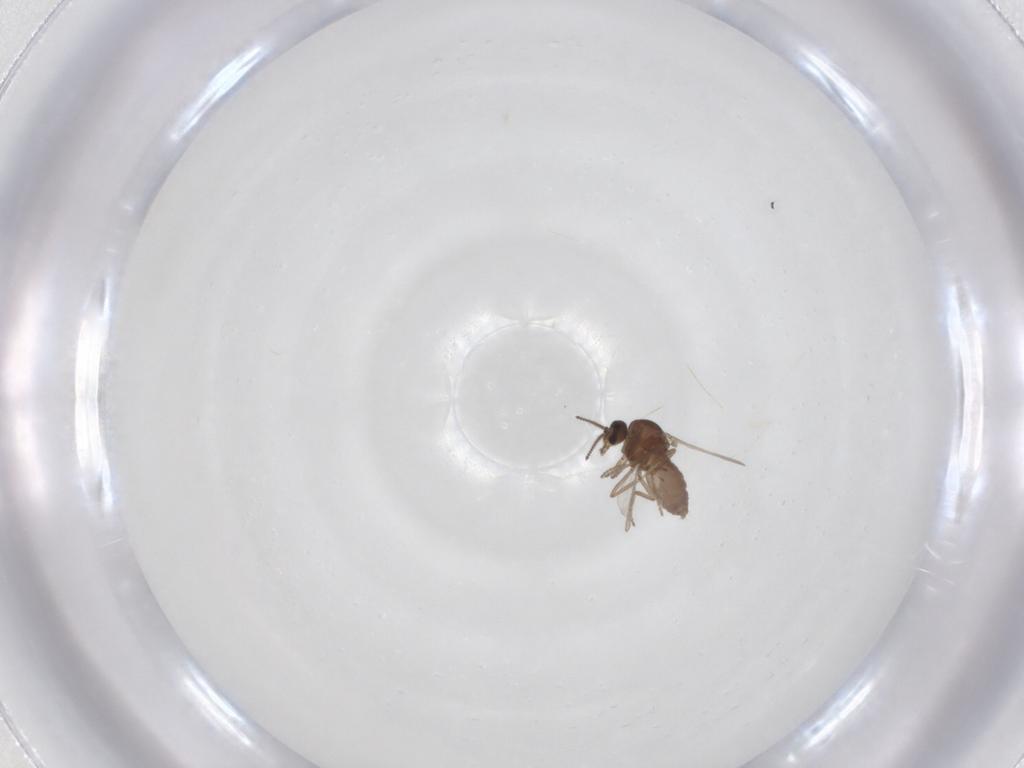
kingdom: Animalia
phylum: Arthropoda
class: Insecta
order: Diptera
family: Ceratopogonidae
